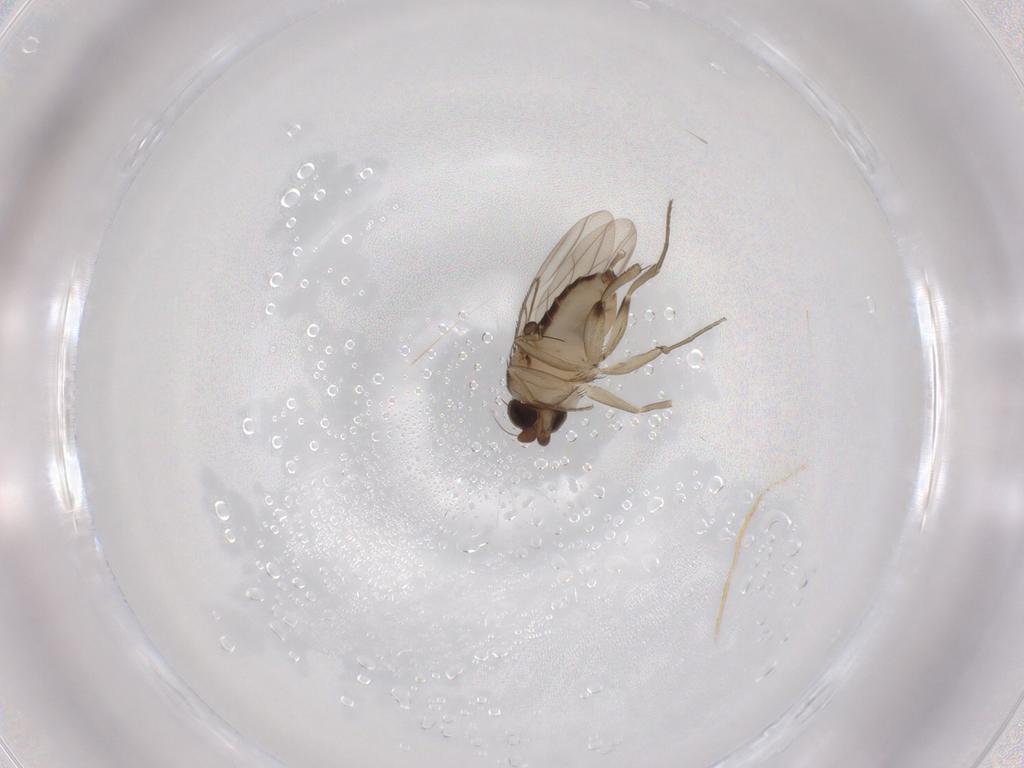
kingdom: Animalia
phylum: Arthropoda
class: Insecta
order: Diptera
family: Phoridae
